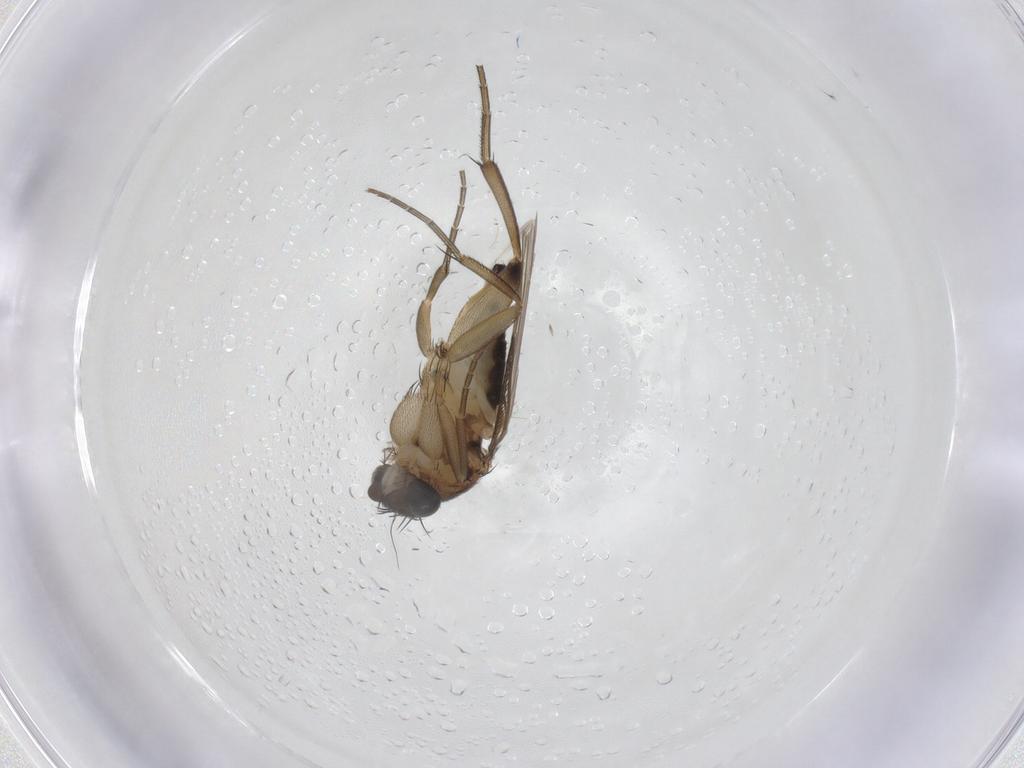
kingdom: Animalia
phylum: Arthropoda
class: Insecta
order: Diptera
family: Phoridae
